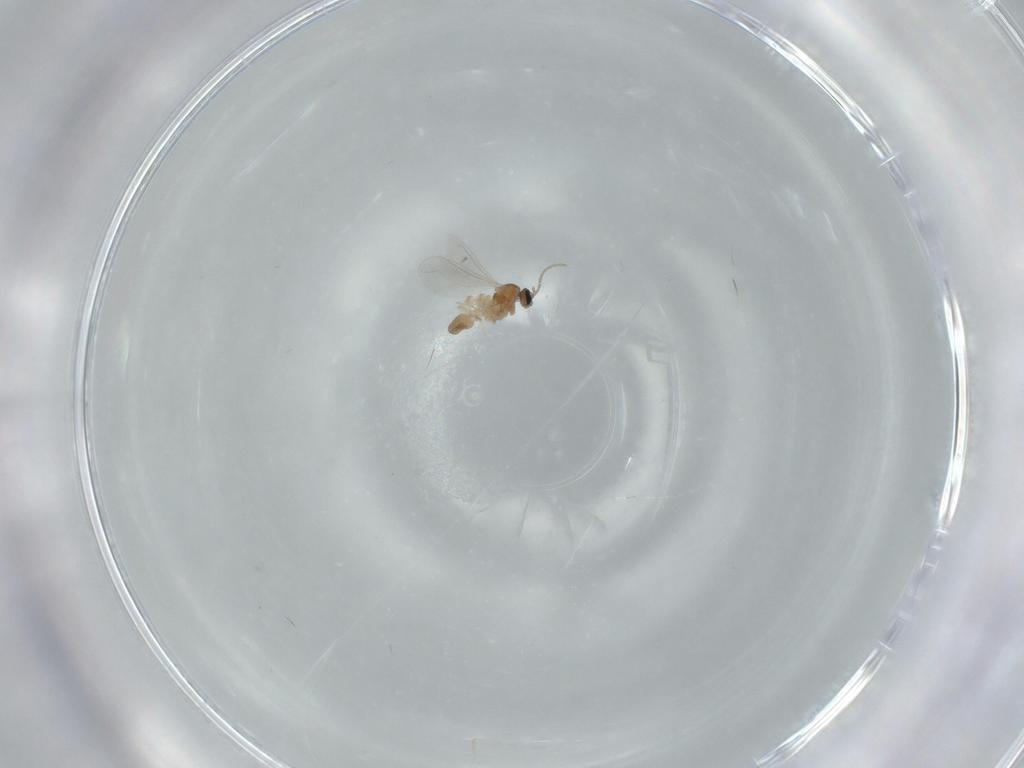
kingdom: Animalia
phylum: Arthropoda
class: Insecta
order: Diptera
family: Cecidomyiidae
